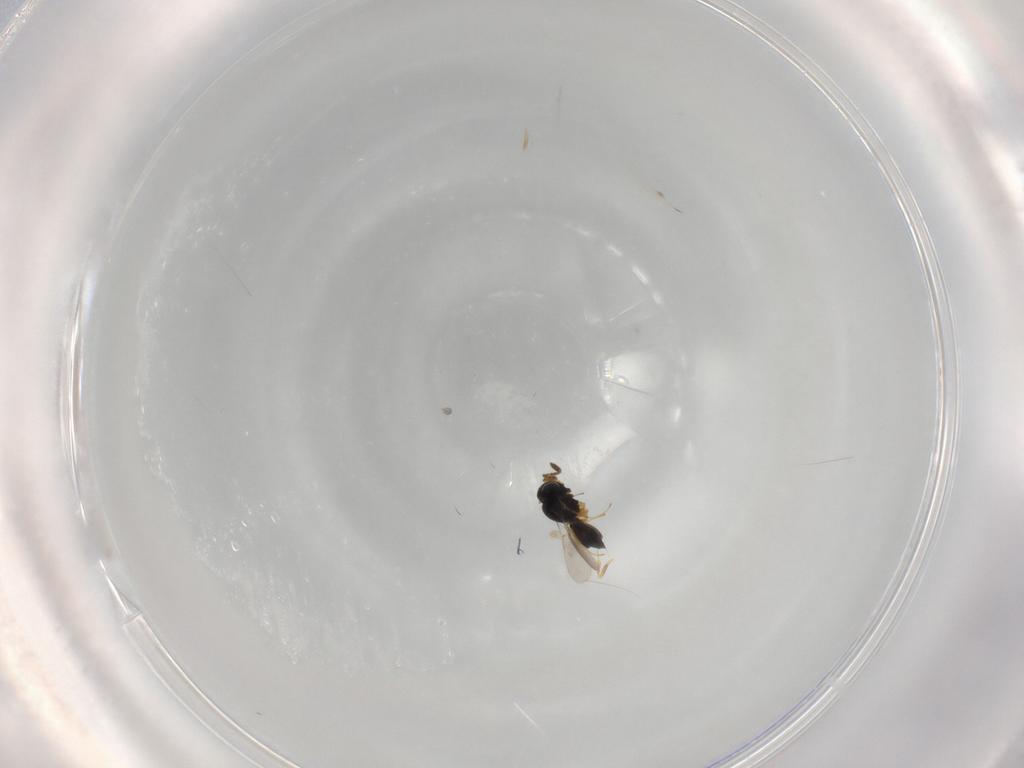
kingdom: Animalia
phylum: Arthropoda
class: Insecta
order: Hymenoptera
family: Scelionidae
